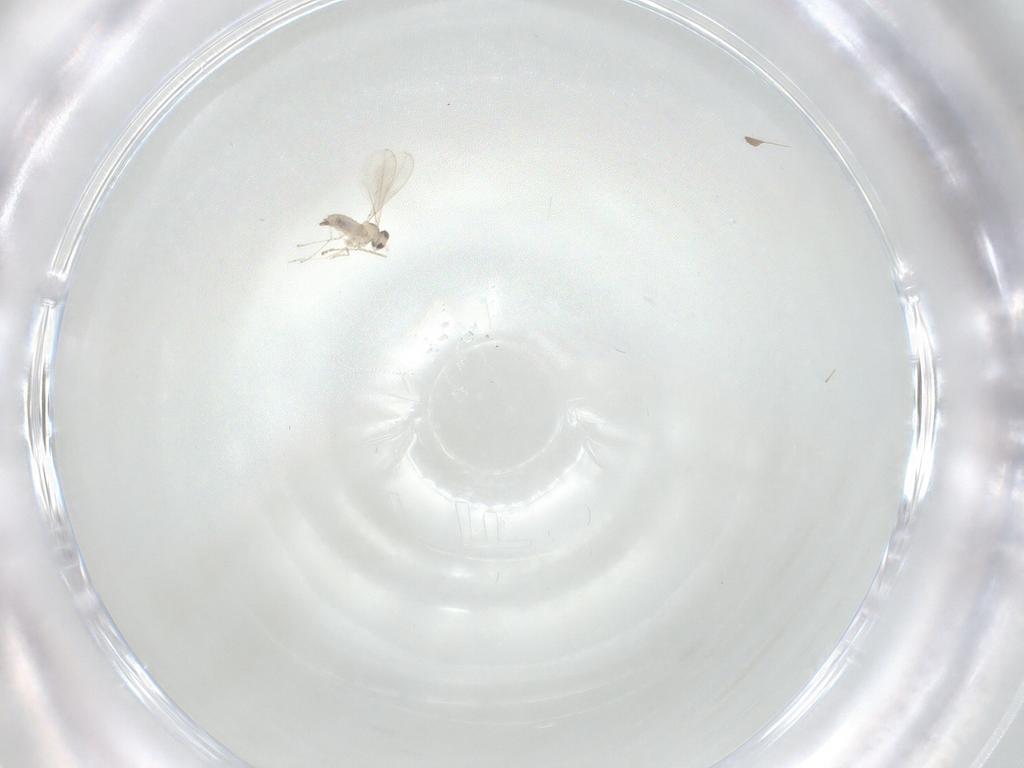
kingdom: Animalia
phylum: Arthropoda
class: Insecta
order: Diptera
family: Cecidomyiidae
